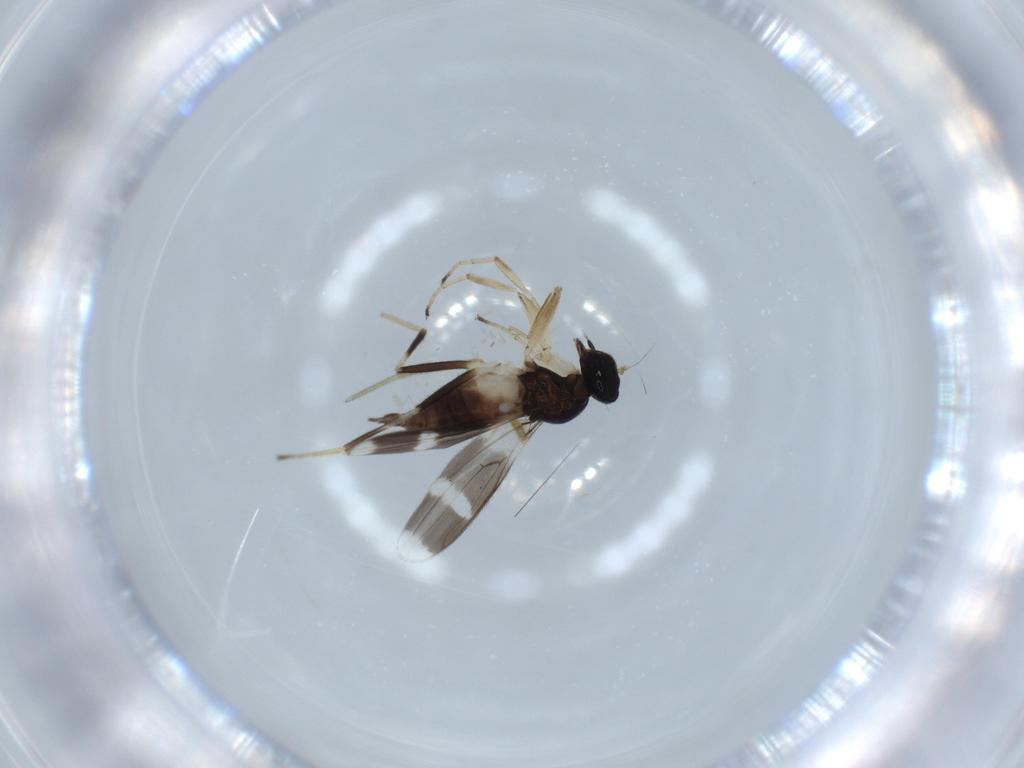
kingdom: Animalia
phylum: Arthropoda
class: Insecta
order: Diptera
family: Hybotidae
